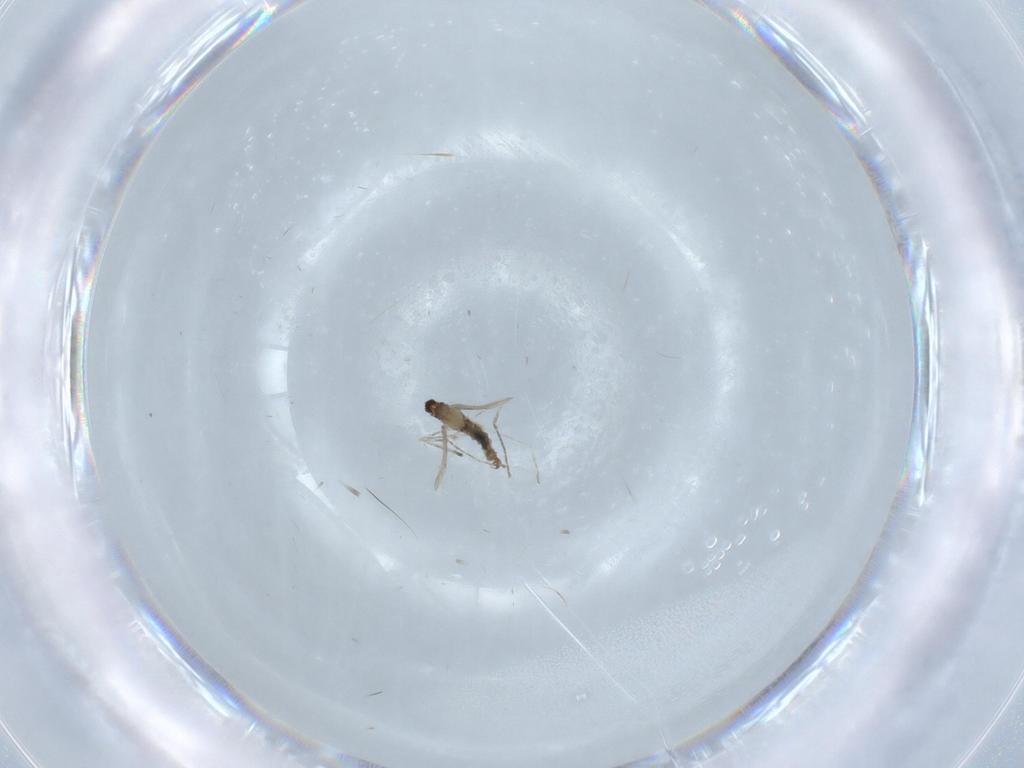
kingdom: Animalia
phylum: Arthropoda
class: Insecta
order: Diptera
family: Cecidomyiidae
